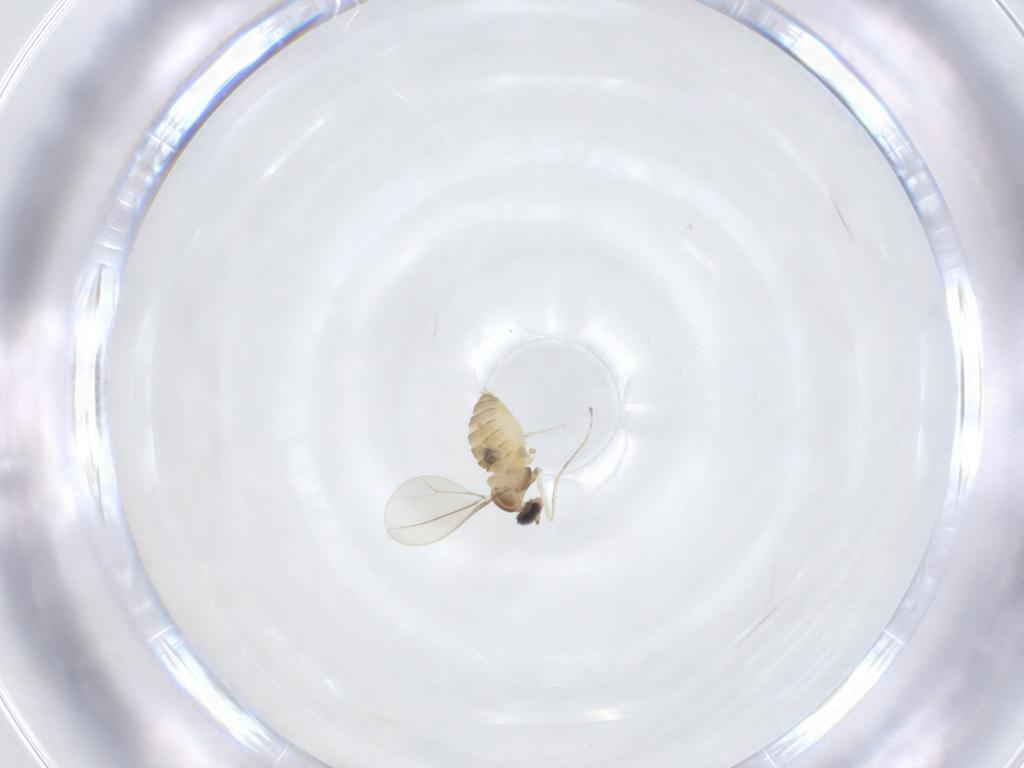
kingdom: Animalia
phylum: Arthropoda
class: Insecta
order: Diptera
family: Cecidomyiidae
